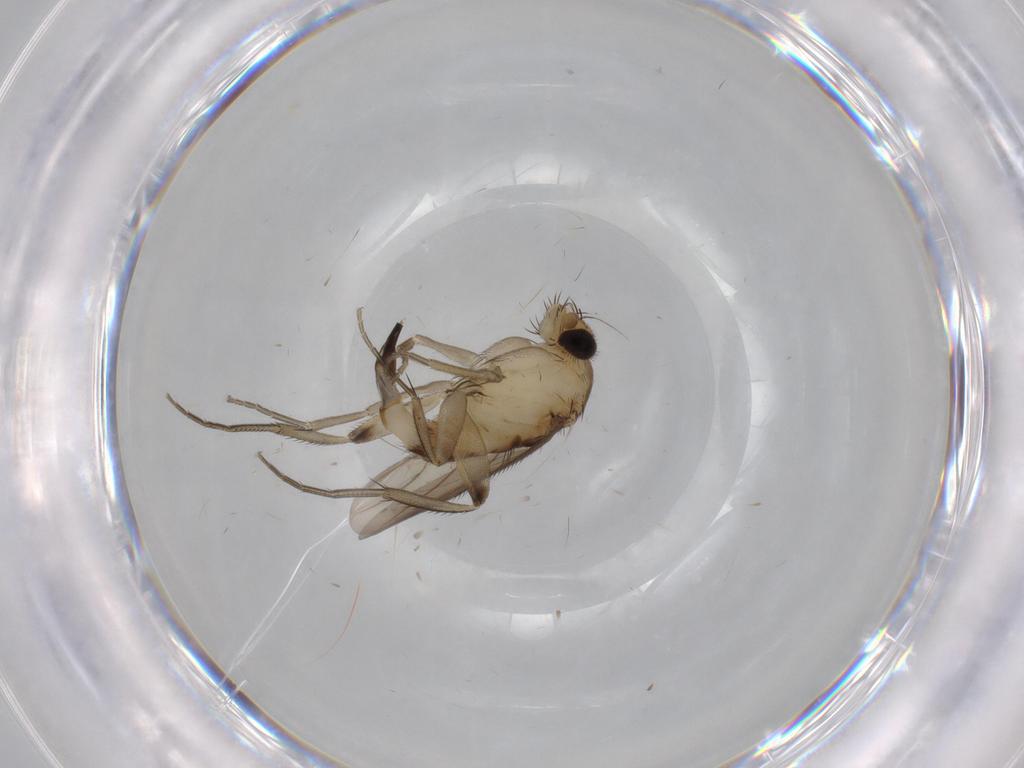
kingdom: Animalia
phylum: Arthropoda
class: Insecta
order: Diptera
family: Phoridae
